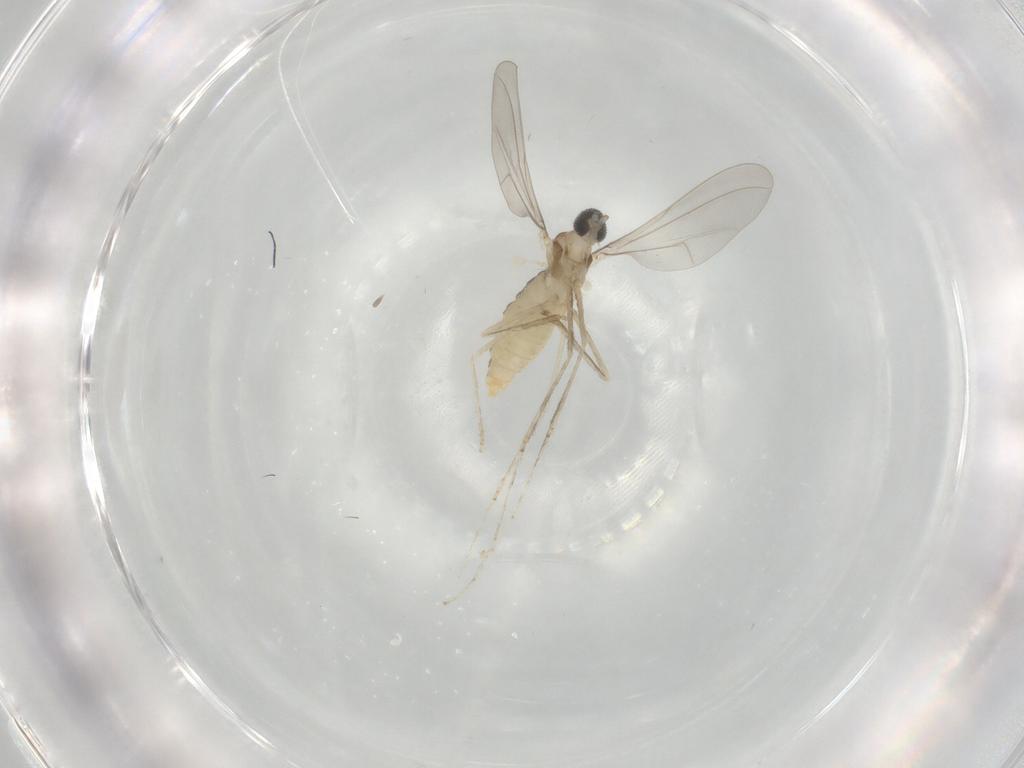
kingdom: Animalia
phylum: Arthropoda
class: Insecta
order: Diptera
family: Cecidomyiidae
